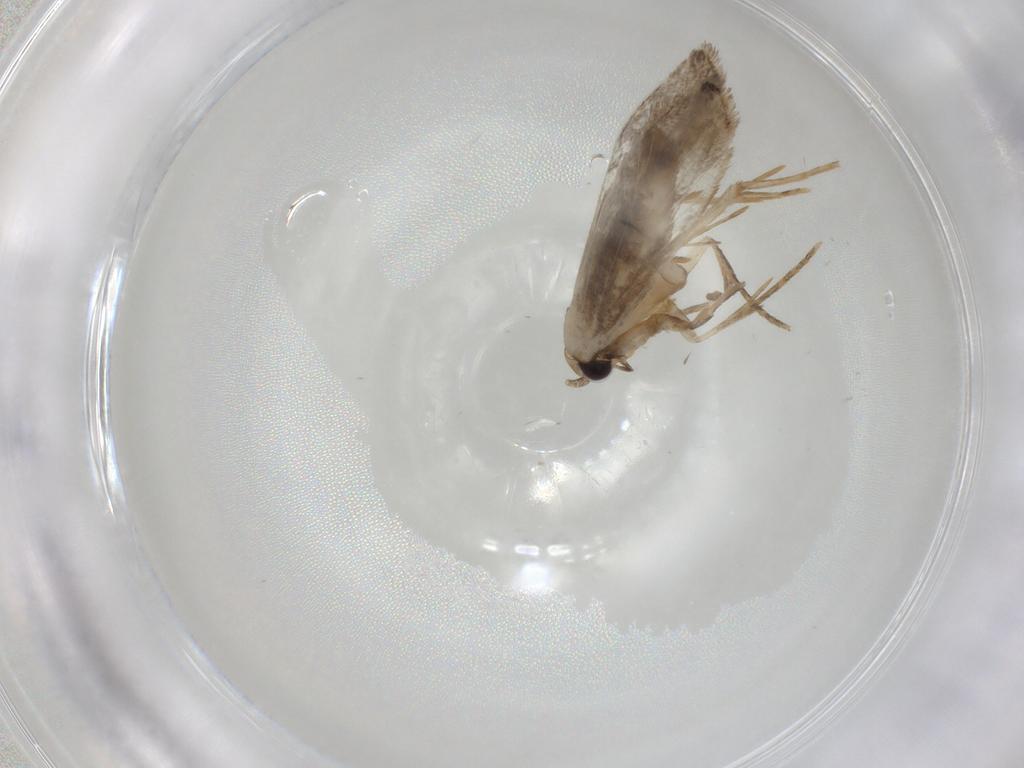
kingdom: Animalia
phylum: Arthropoda
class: Insecta
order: Lepidoptera
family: Tineidae
